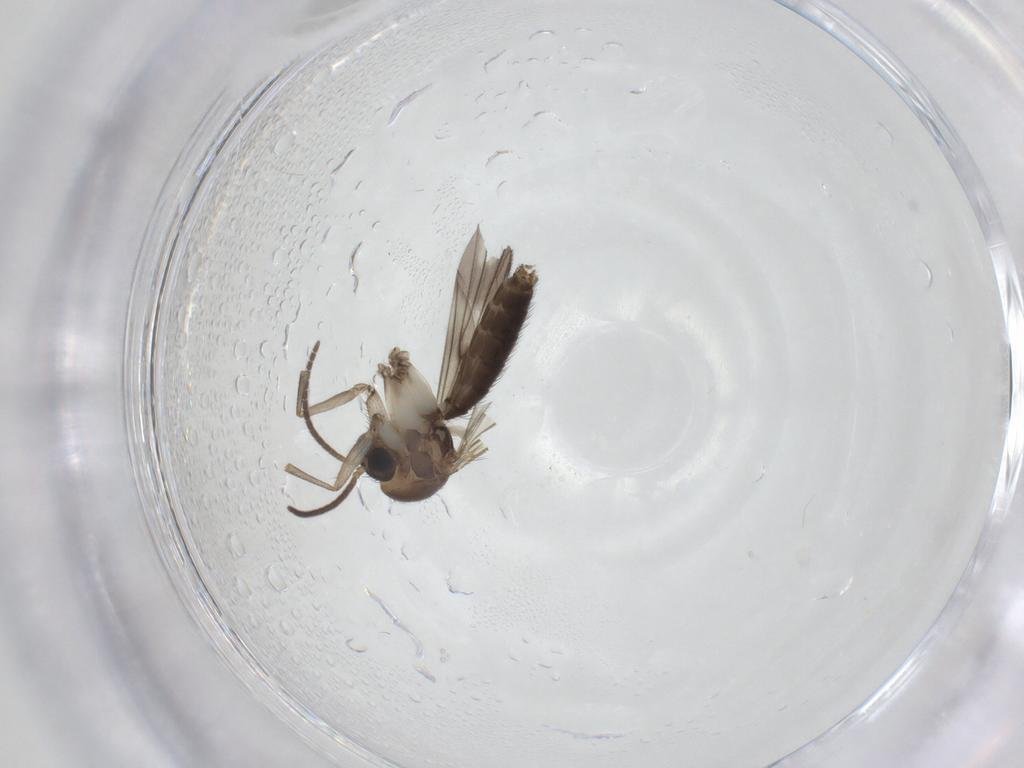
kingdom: Animalia
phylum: Arthropoda
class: Insecta
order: Diptera
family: Chironomidae
